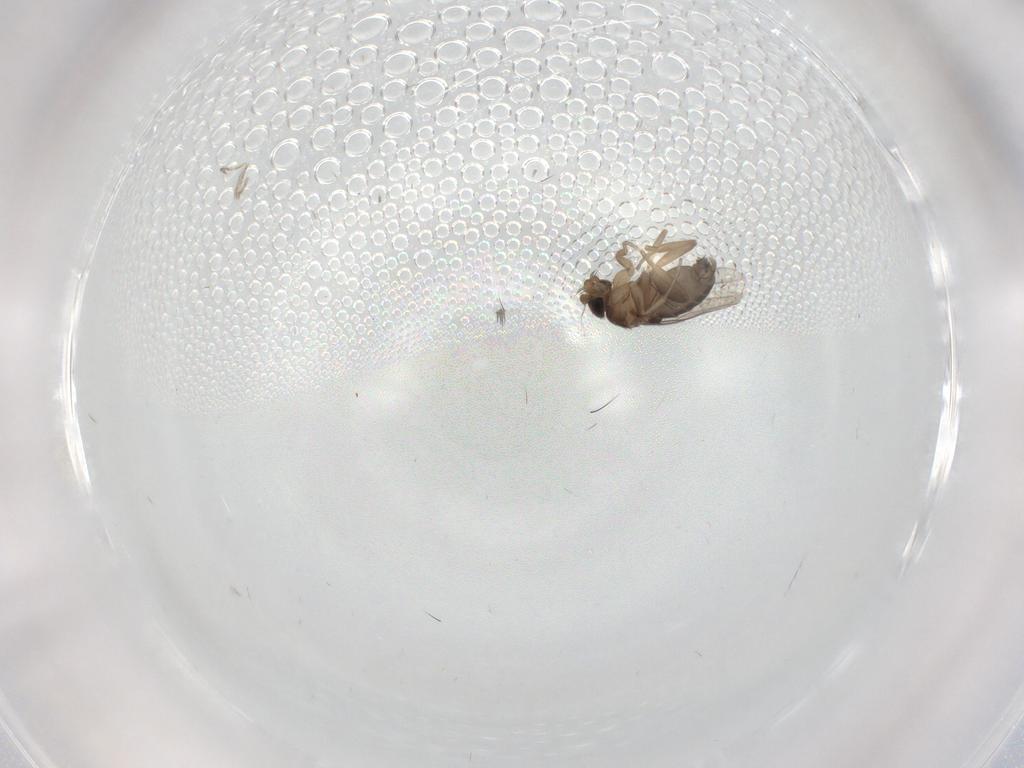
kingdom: Animalia
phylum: Arthropoda
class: Insecta
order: Diptera
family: Phoridae
